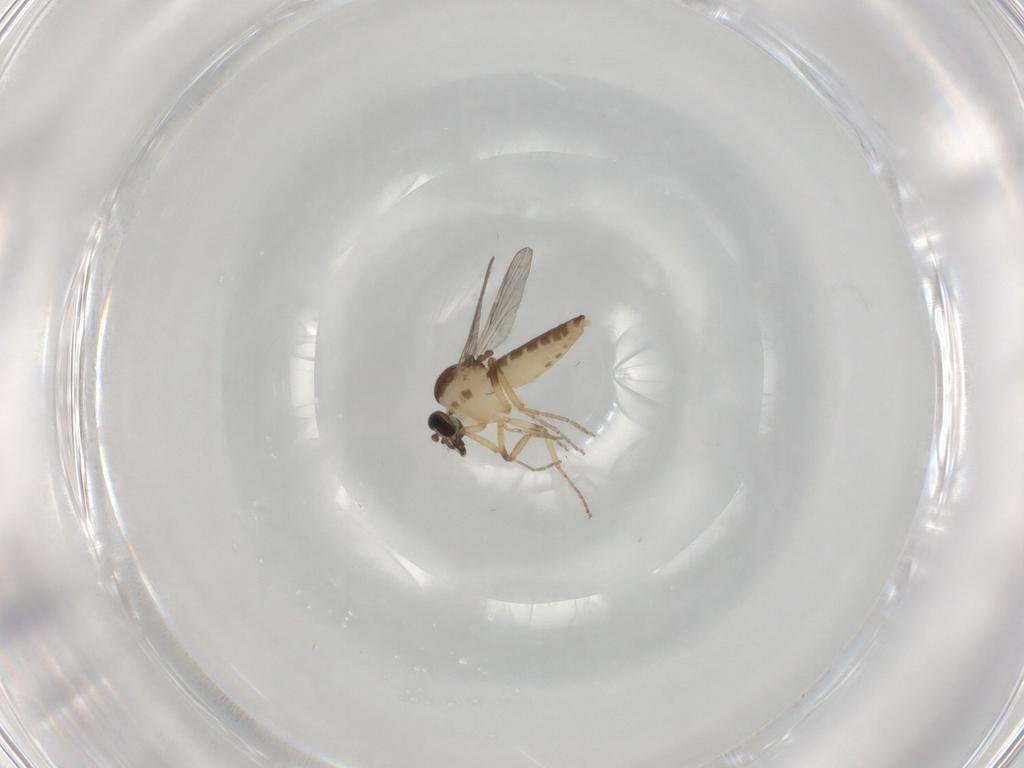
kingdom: Animalia
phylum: Arthropoda
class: Insecta
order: Diptera
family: Ceratopogonidae
